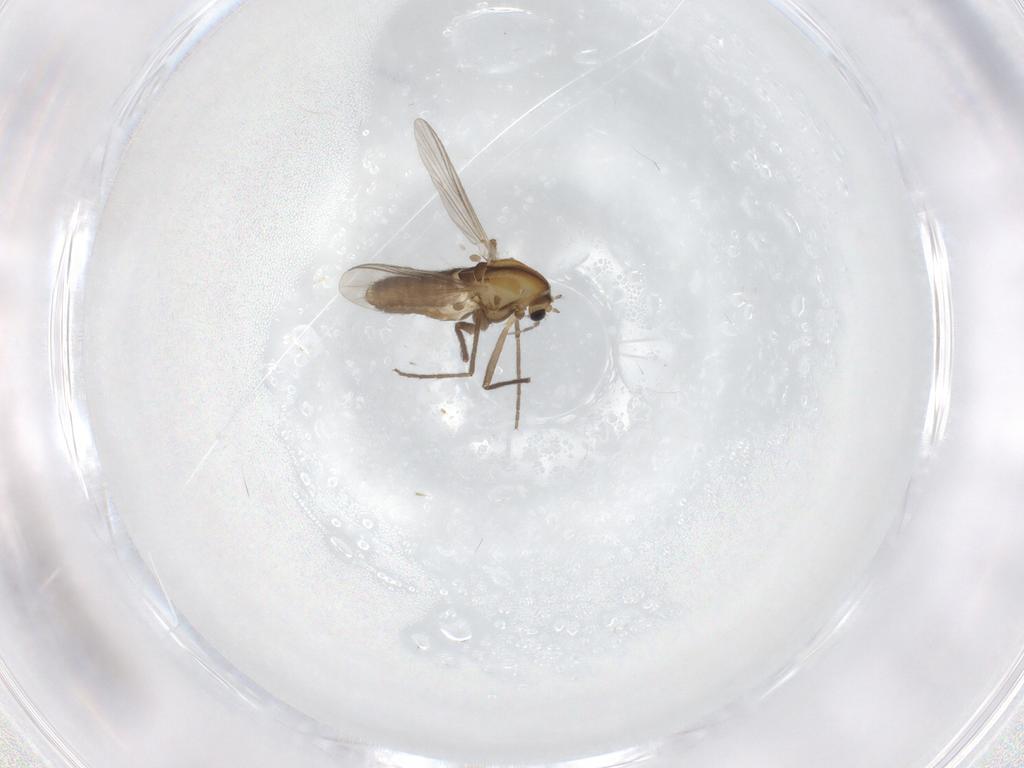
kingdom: Animalia
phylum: Arthropoda
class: Insecta
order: Diptera
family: Chironomidae
